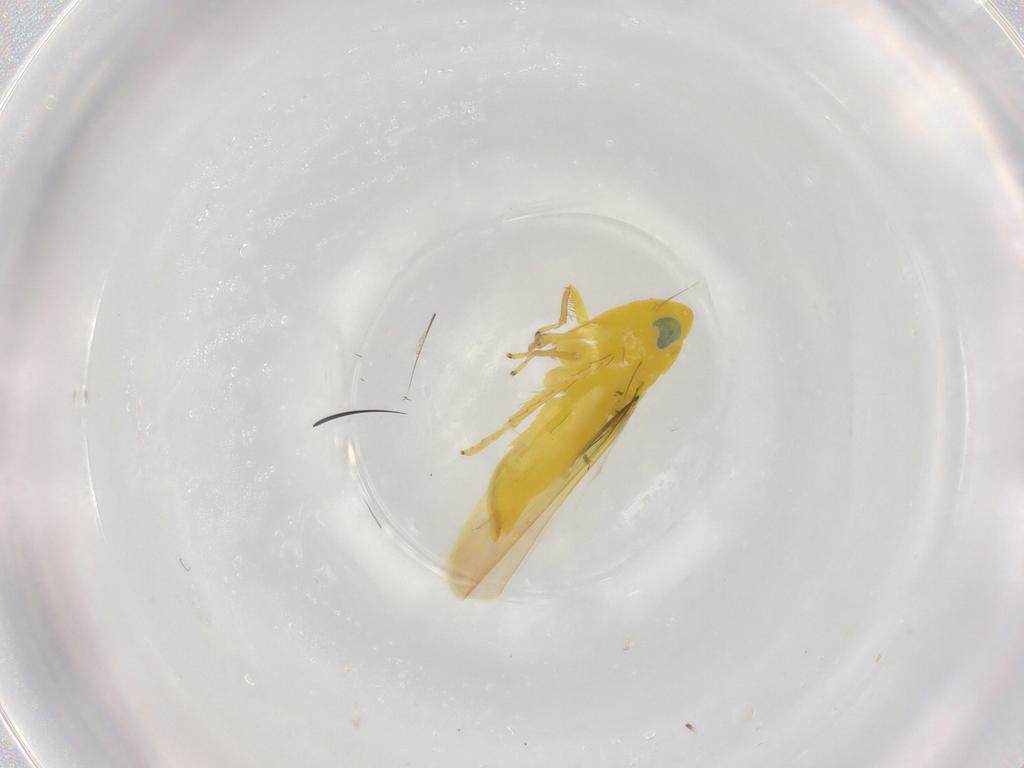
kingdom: Animalia
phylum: Arthropoda
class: Insecta
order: Hemiptera
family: Cicadellidae
